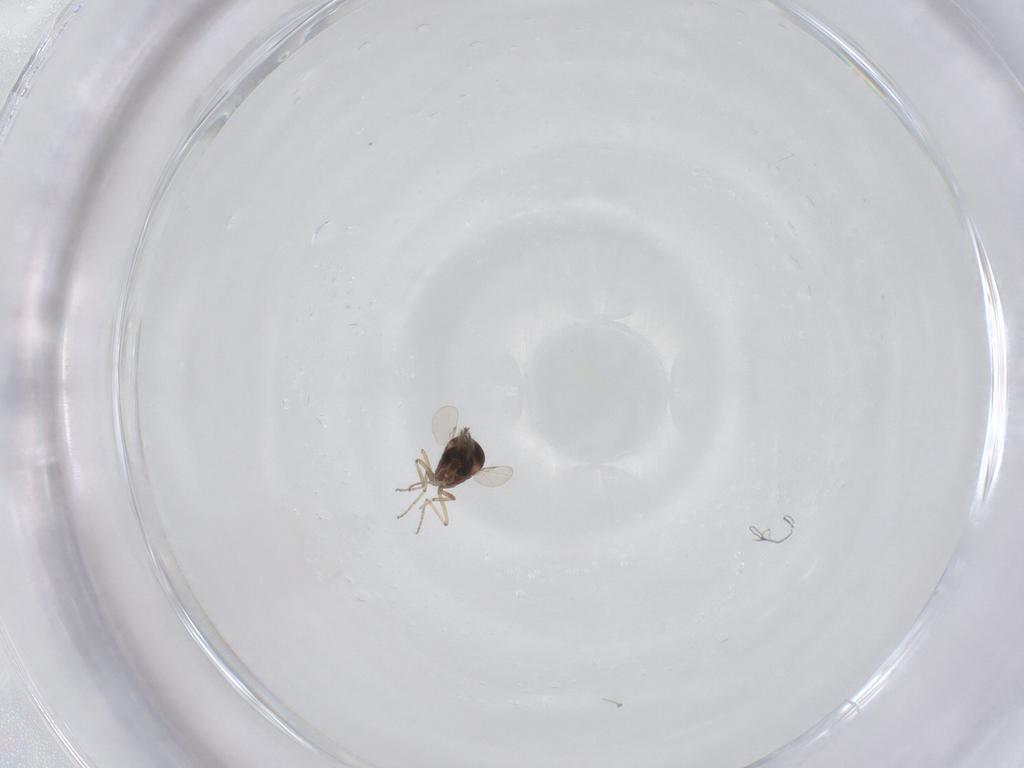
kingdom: Animalia
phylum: Arthropoda
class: Insecta
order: Diptera
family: Ceratopogonidae
